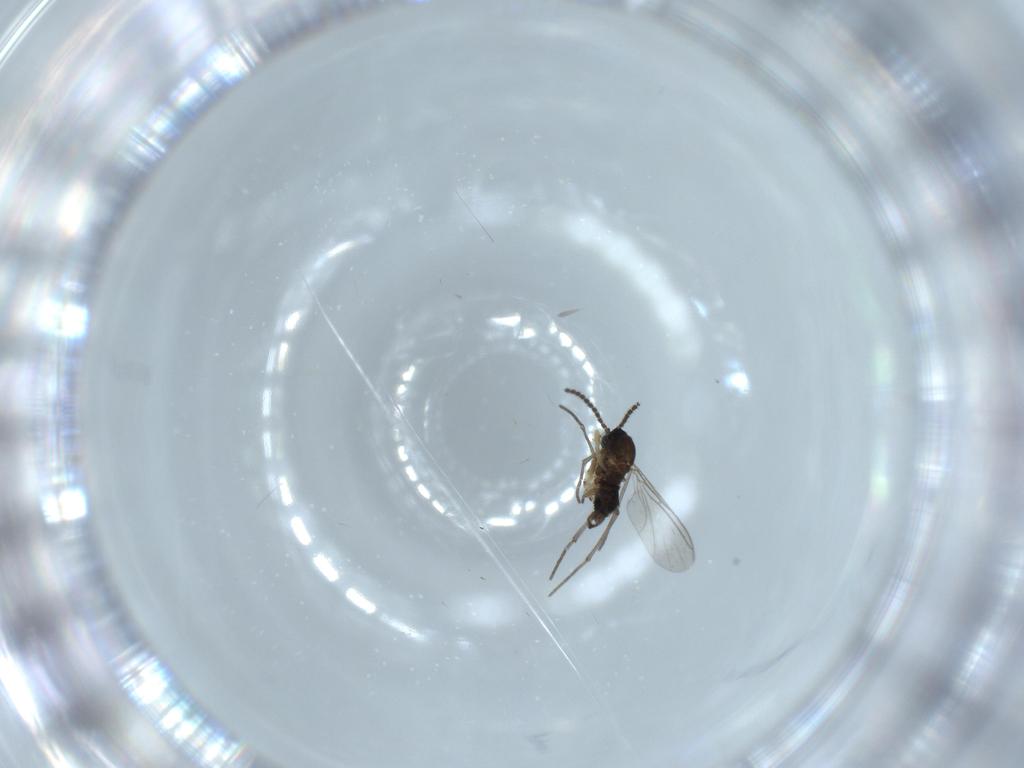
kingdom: Animalia
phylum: Arthropoda
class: Insecta
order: Diptera
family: Sciaridae
